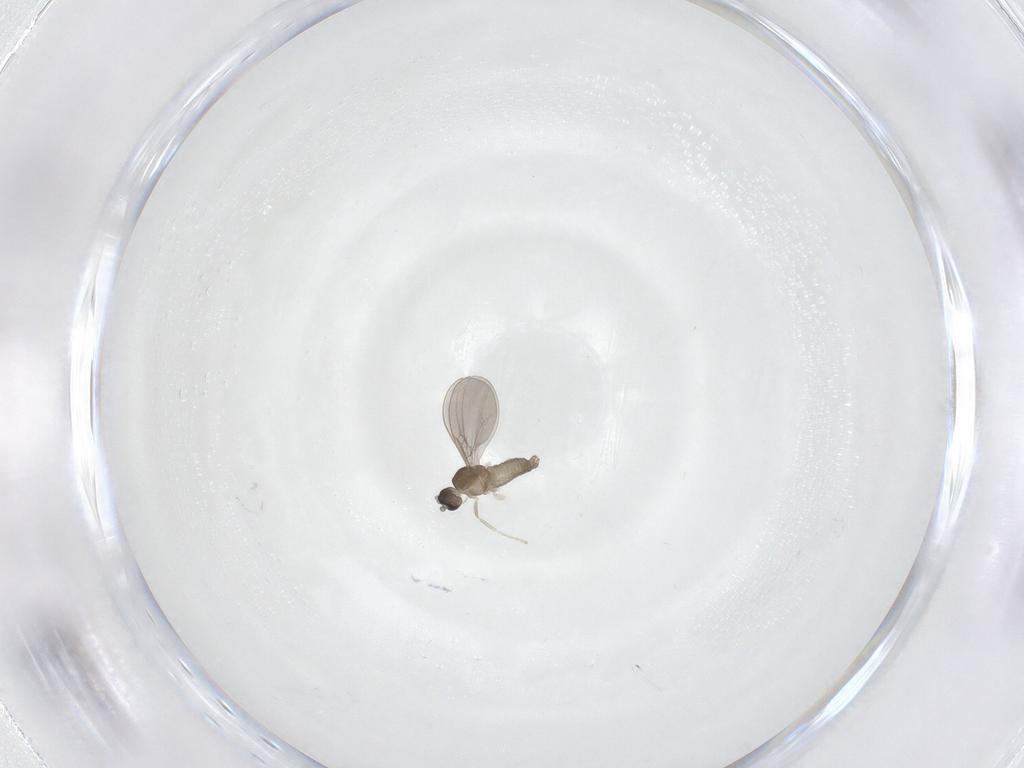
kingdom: Animalia
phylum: Arthropoda
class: Insecta
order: Diptera
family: Cecidomyiidae
